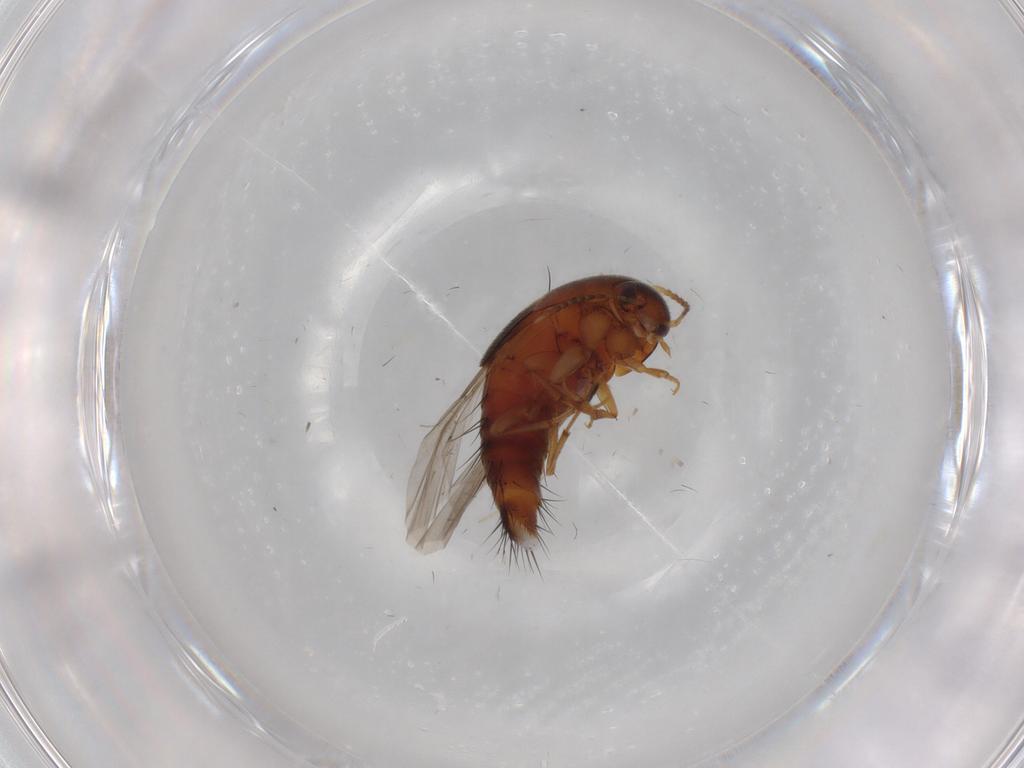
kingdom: Animalia
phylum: Arthropoda
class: Insecta
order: Coleoptera
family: Staphylinidae
